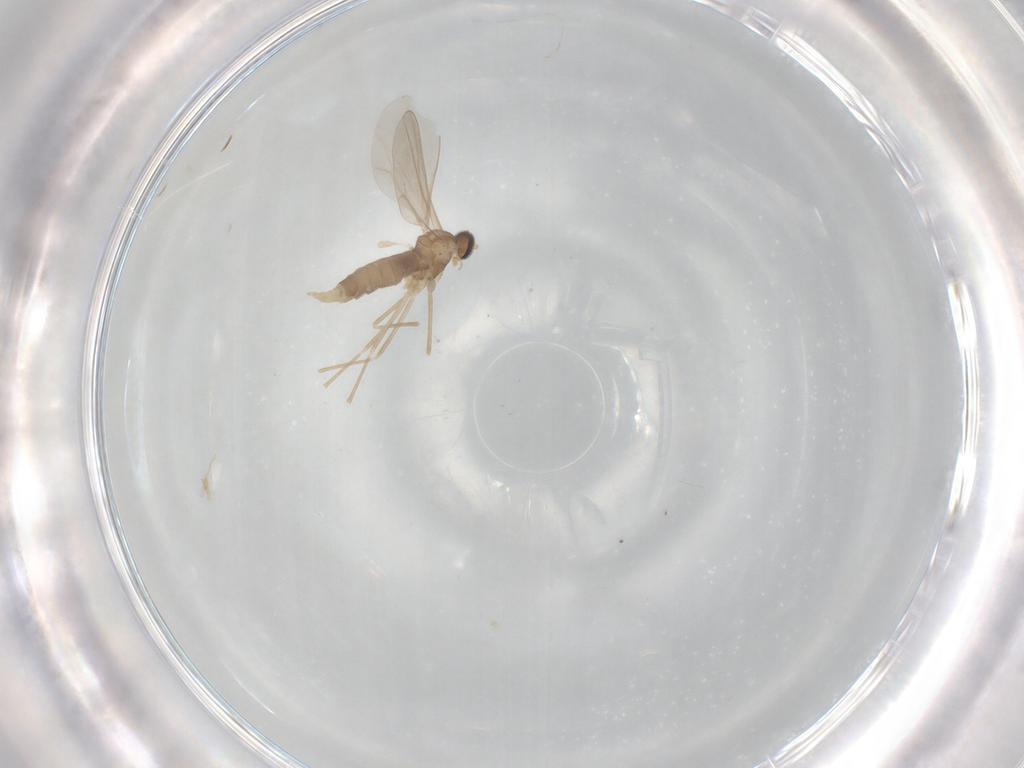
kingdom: Animalia
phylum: Arthropoda
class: Insecta
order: Diptera
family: Cecidomyiidae
